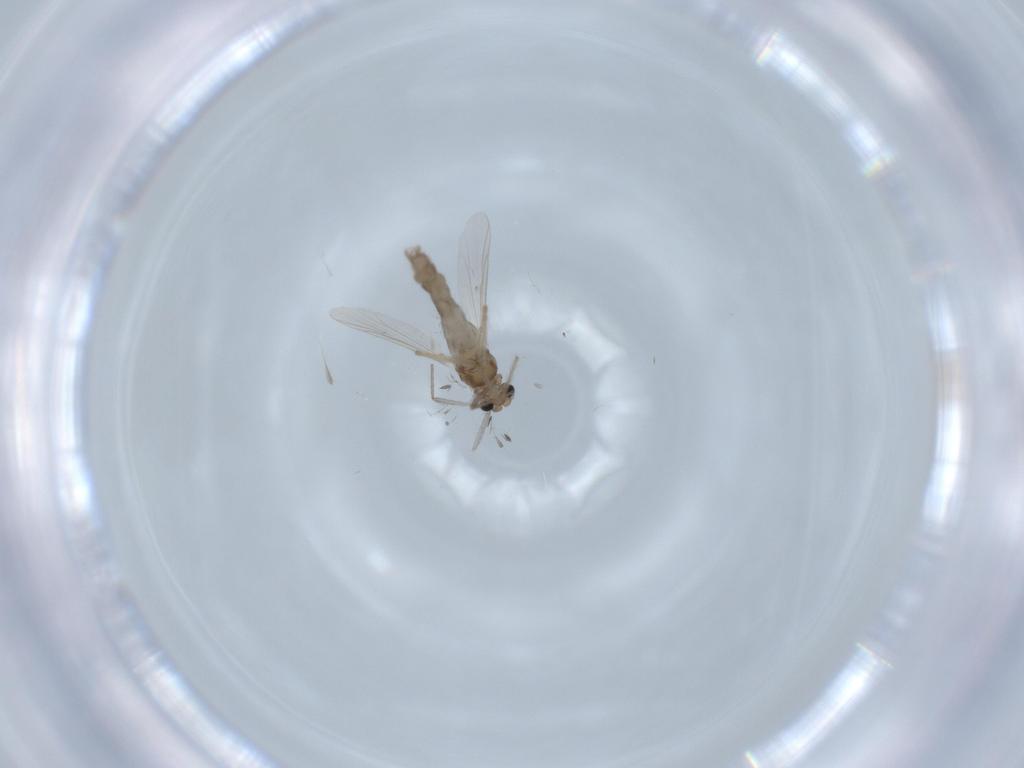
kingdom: Animalia
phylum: Arthropoda
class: Insecta
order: Diptera
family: Chironomidae
